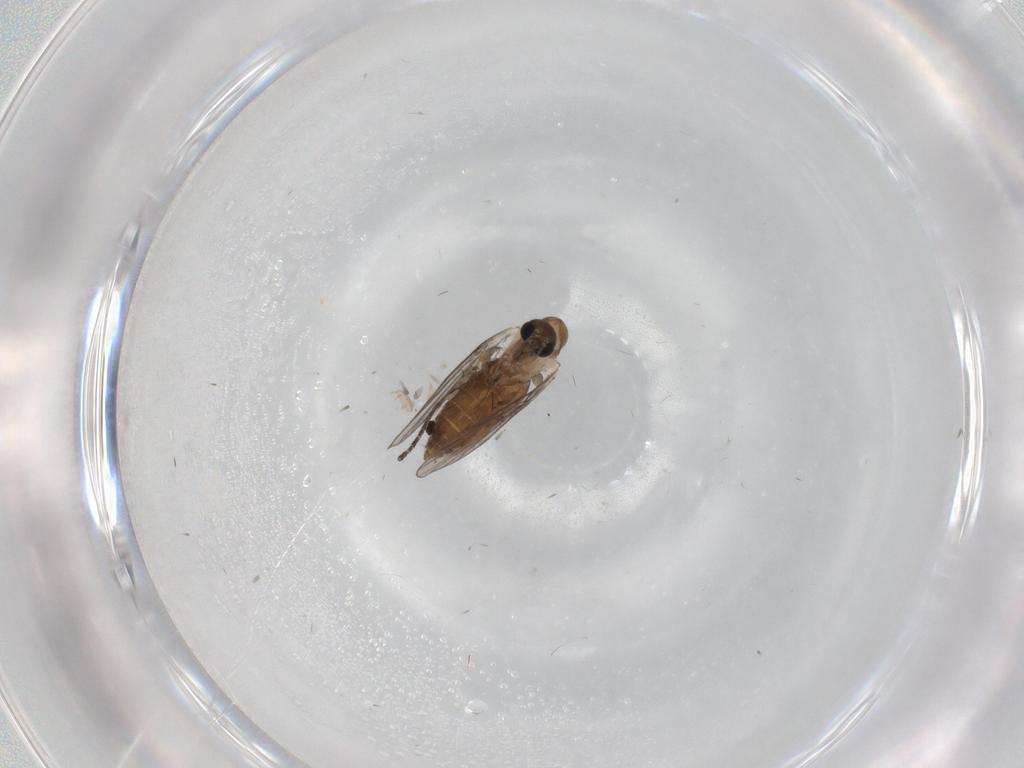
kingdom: Animalia
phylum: Arthropoda
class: Insecta
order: Diptera
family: Psychodidae
